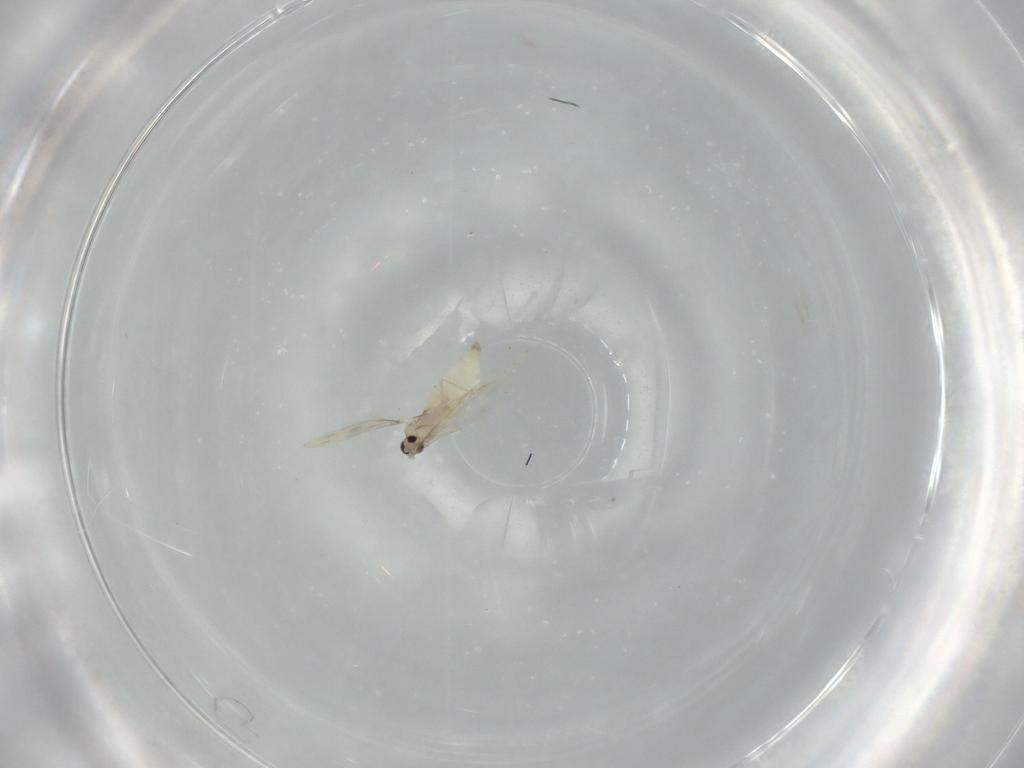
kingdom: Animalia
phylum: Arthropoda
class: Insecta
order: Diptera
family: Cecidomyiidae
